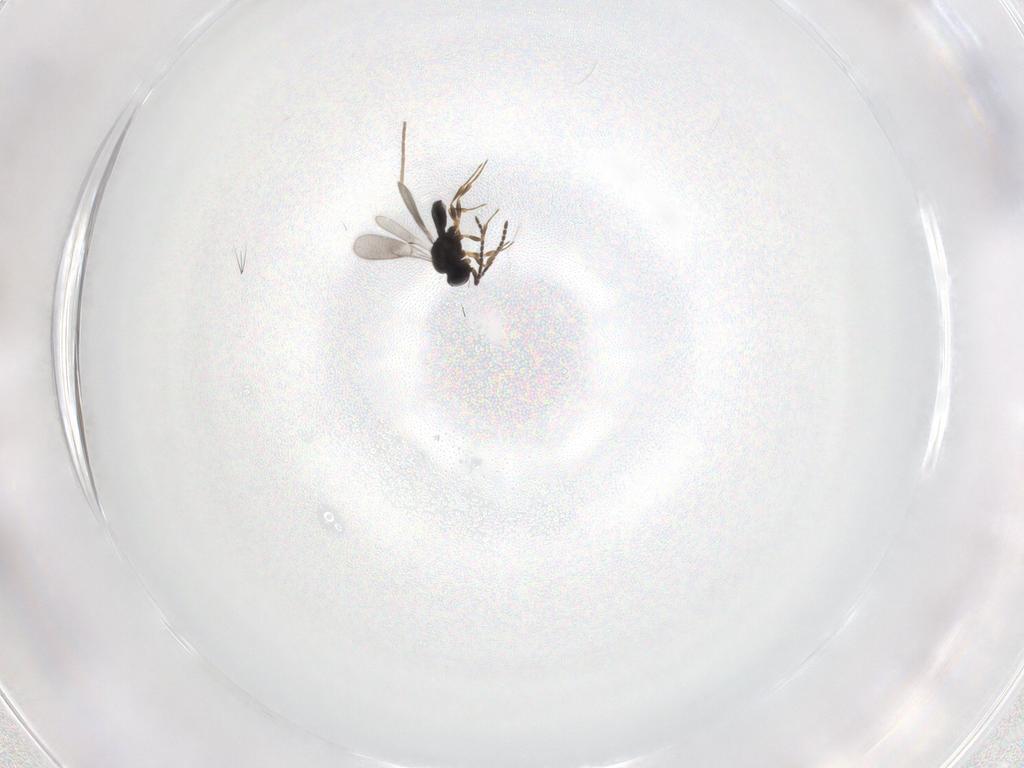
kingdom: Animalia
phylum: Arthropoda
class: Insecta
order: Hymenoptera
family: Scelionidae
